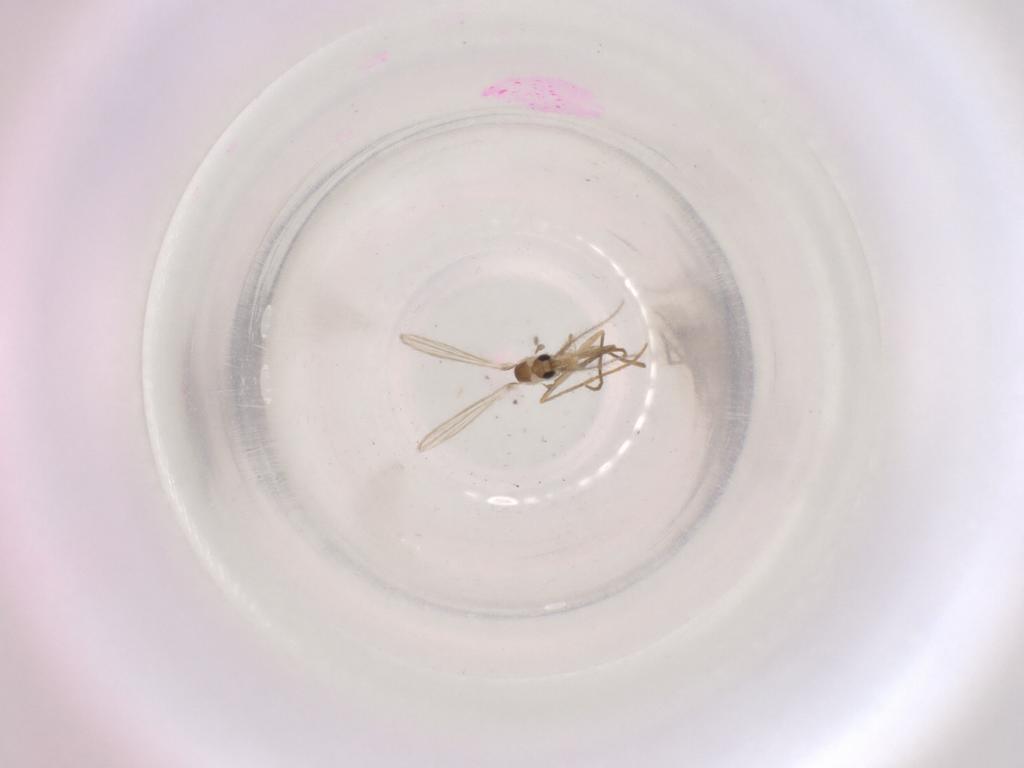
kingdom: Animalia
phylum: Arthropoda
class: Insecta
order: Diptera
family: Psychodidae
